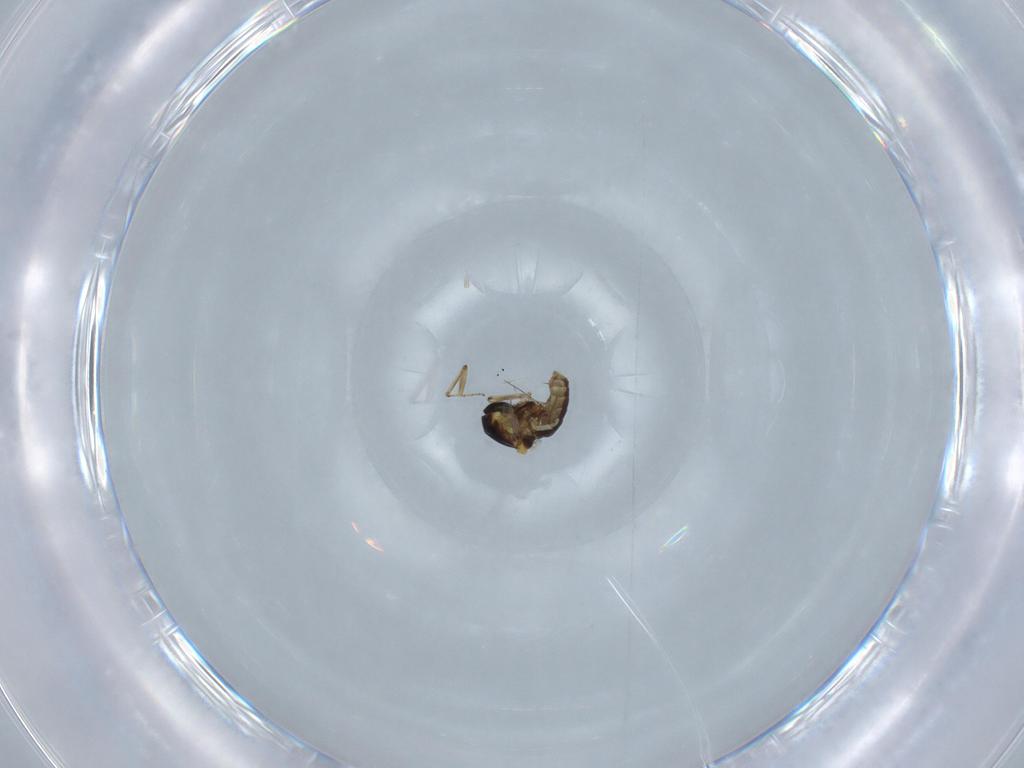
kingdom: Animalia
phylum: Arthropoda
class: Insecta
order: Diptera
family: Ceratopogonidae
